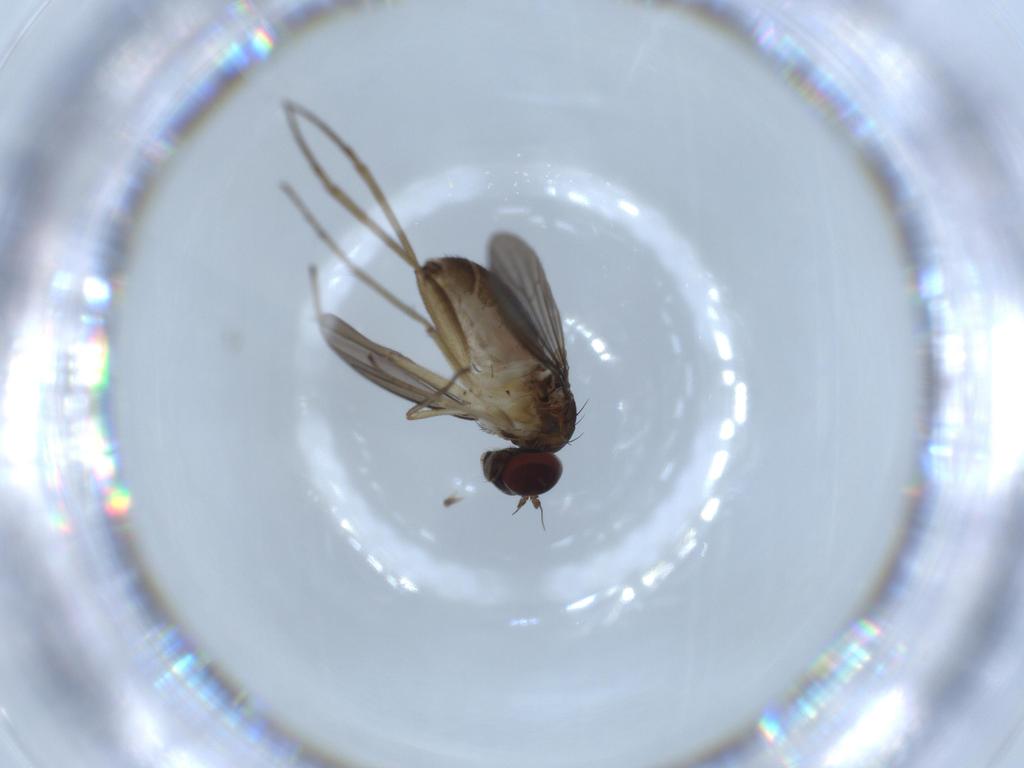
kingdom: Animalia
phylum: Arthropoda
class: Insecta
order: Diptera
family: Dolichopodidae
